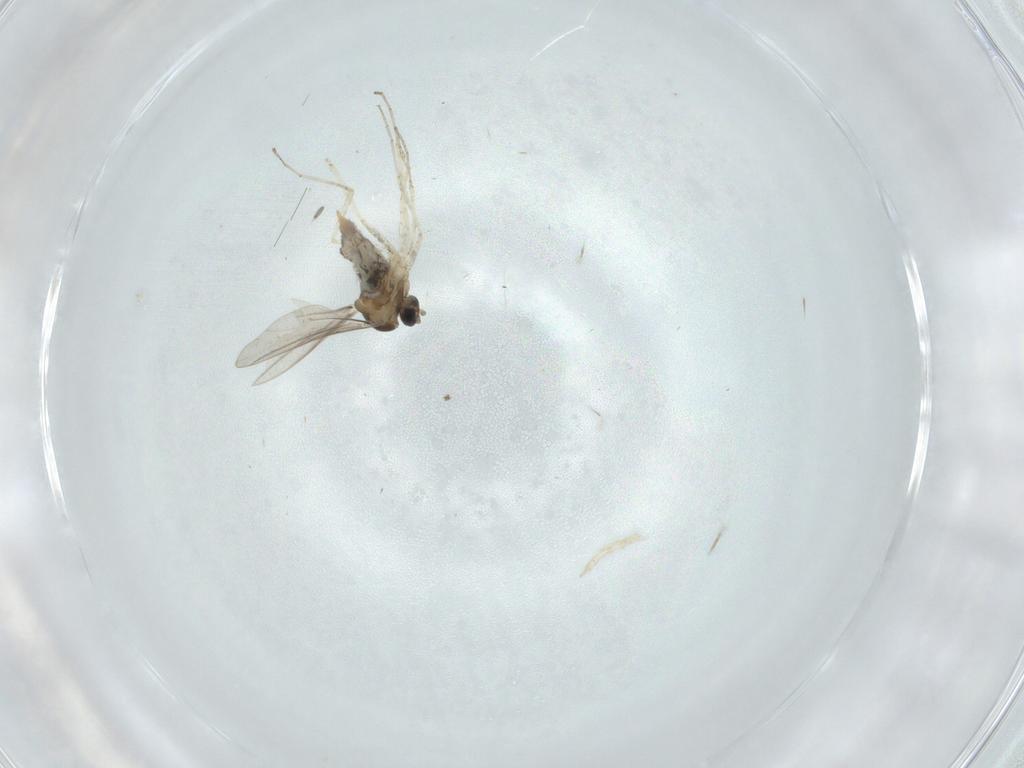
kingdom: Animalia
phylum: Arthropoda
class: Insecta
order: Diptera
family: Cecidomyiidae
